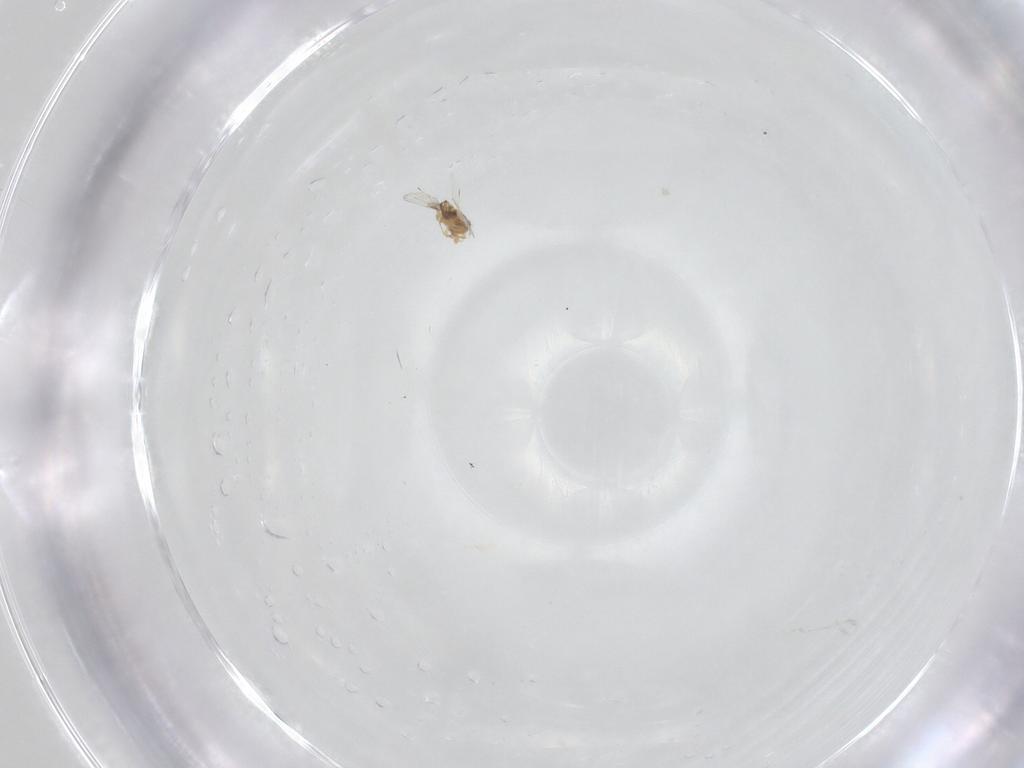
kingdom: Animalia
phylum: Arthropoda
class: Insecta
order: Hymenoptera
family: Trichogrammatidae
